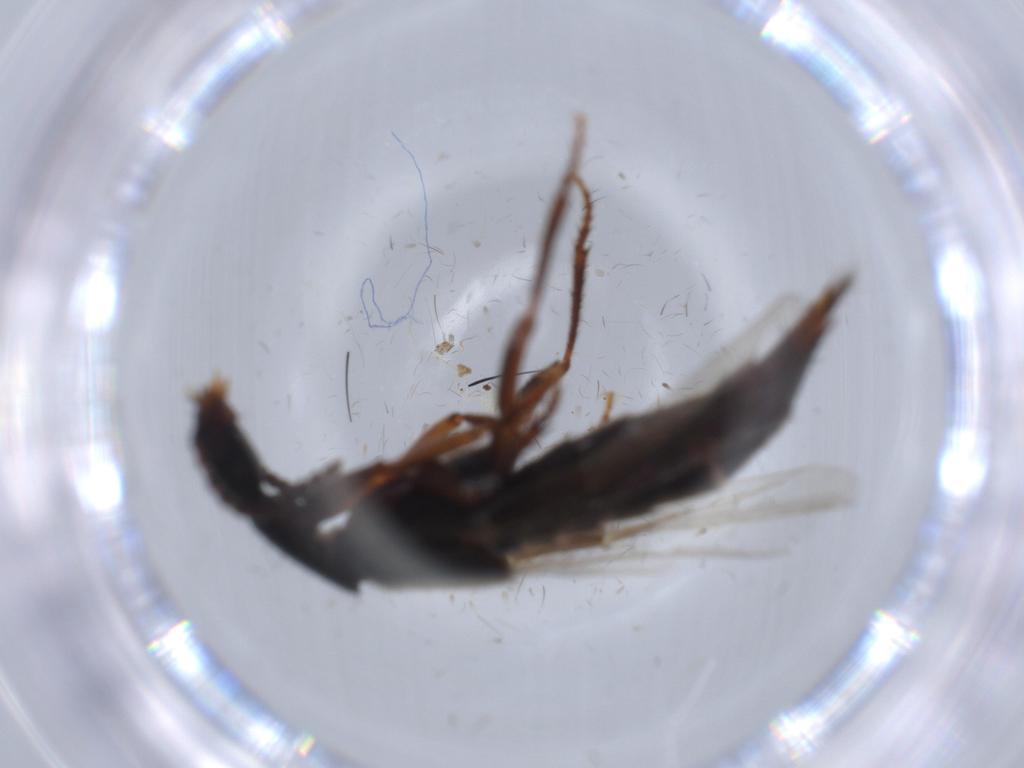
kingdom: Animalia
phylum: Arthropoda
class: Insecta
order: Coleoptera
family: Staphylinidae
